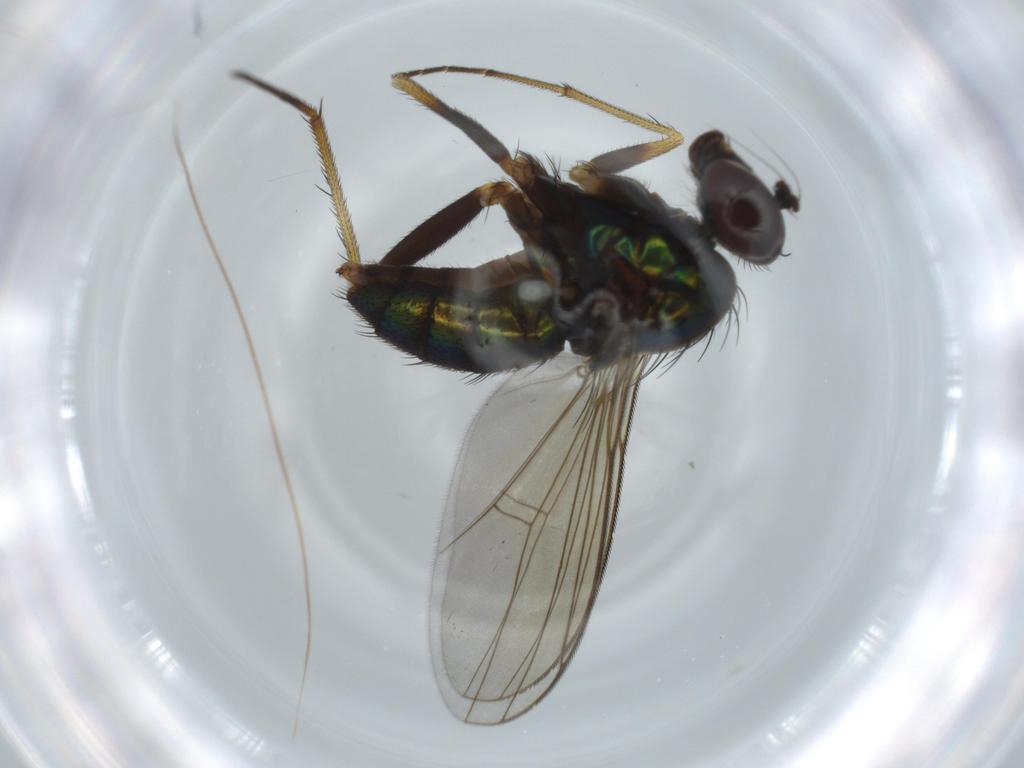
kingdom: Animalia
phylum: Arthropoda
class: Insecta
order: Diptera
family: Dolichopodidae
